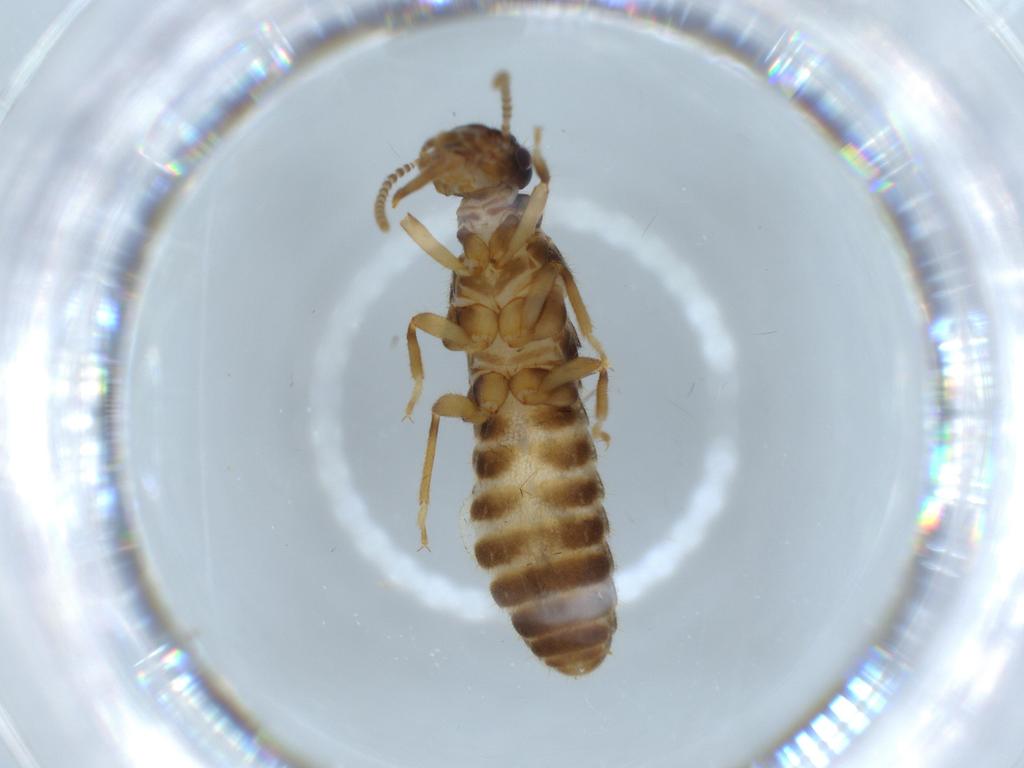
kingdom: Animalia
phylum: Arthropoda
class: Insecta
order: Blattodea
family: Termitidae
